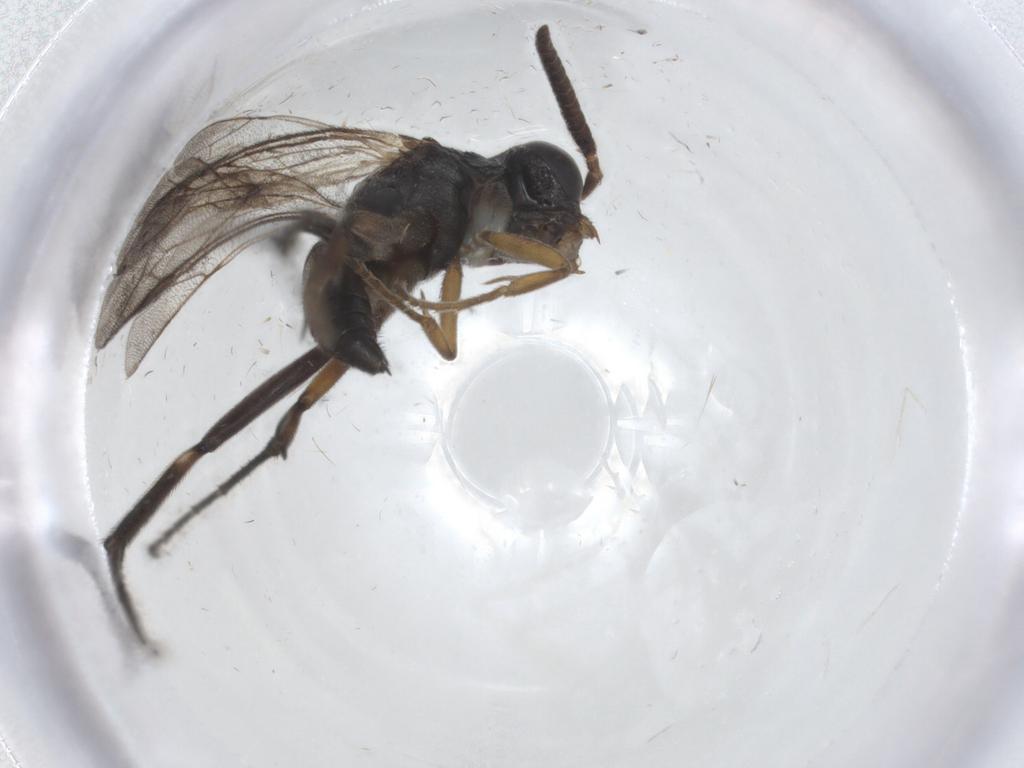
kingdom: Animalia
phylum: Arthropoda
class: Insecta
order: Hymenoptera
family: Pompilidae
